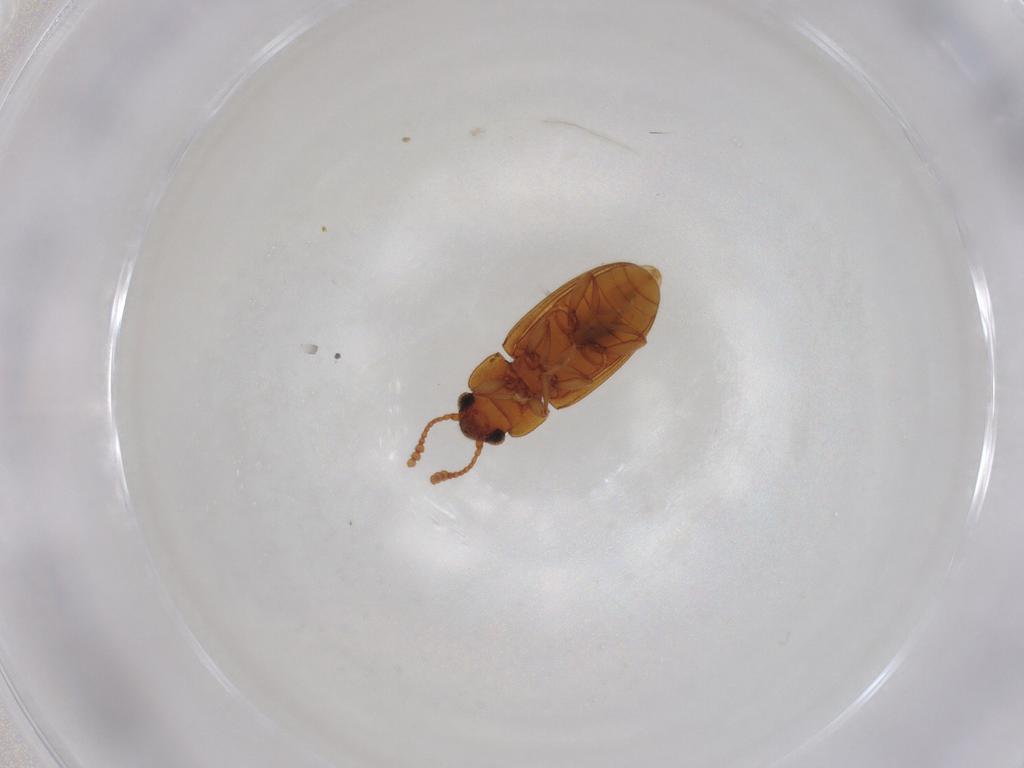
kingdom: Animalia
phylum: Arthropoda
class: Insecta
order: Coleoptera
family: Erotylidae
